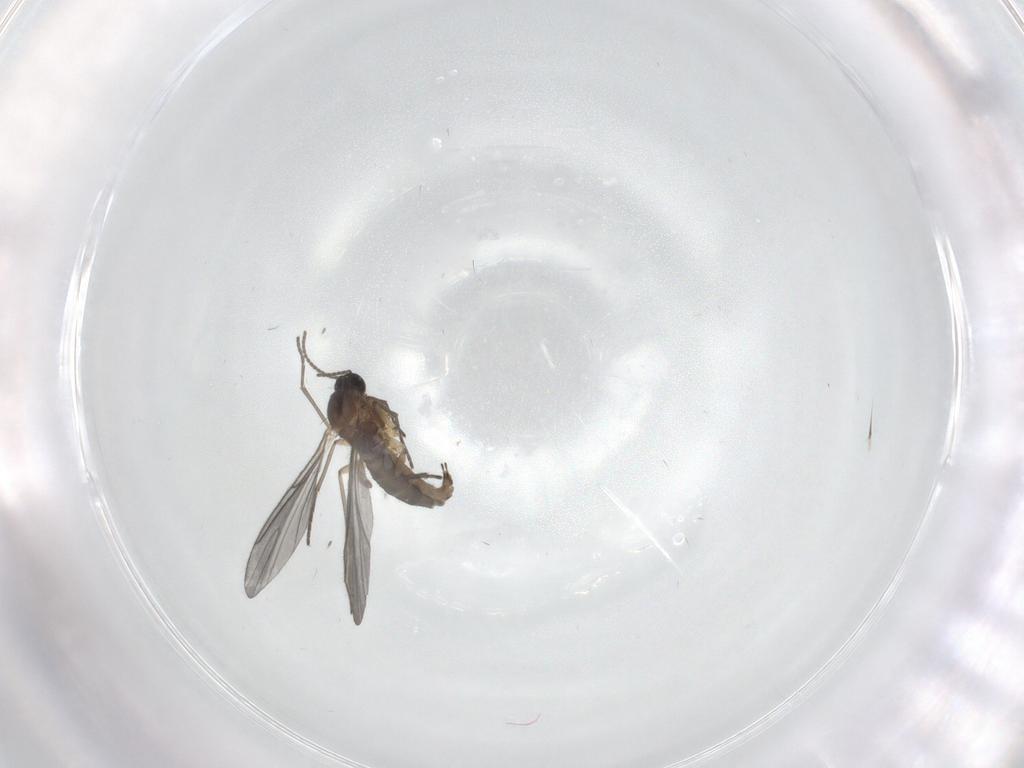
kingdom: Animalia
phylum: Arthropoda
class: Insecta
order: Diptera
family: Sciaridae
